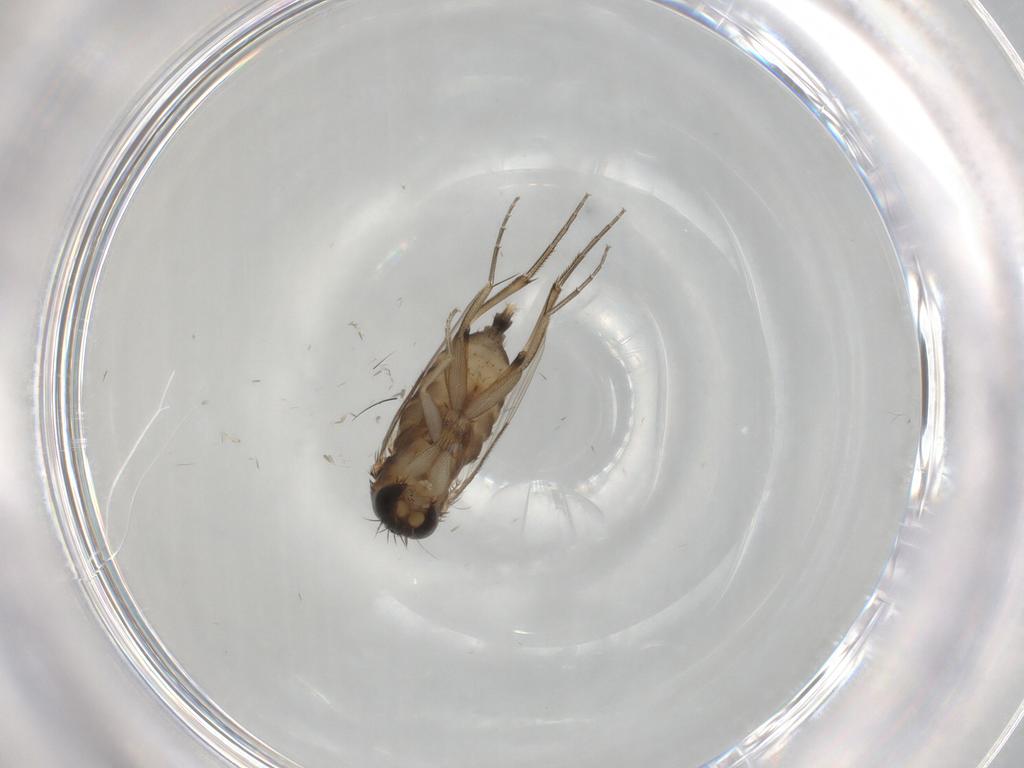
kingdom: Animalia
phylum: Arthropoda
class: Insecta
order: Diptera
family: Phoridae
